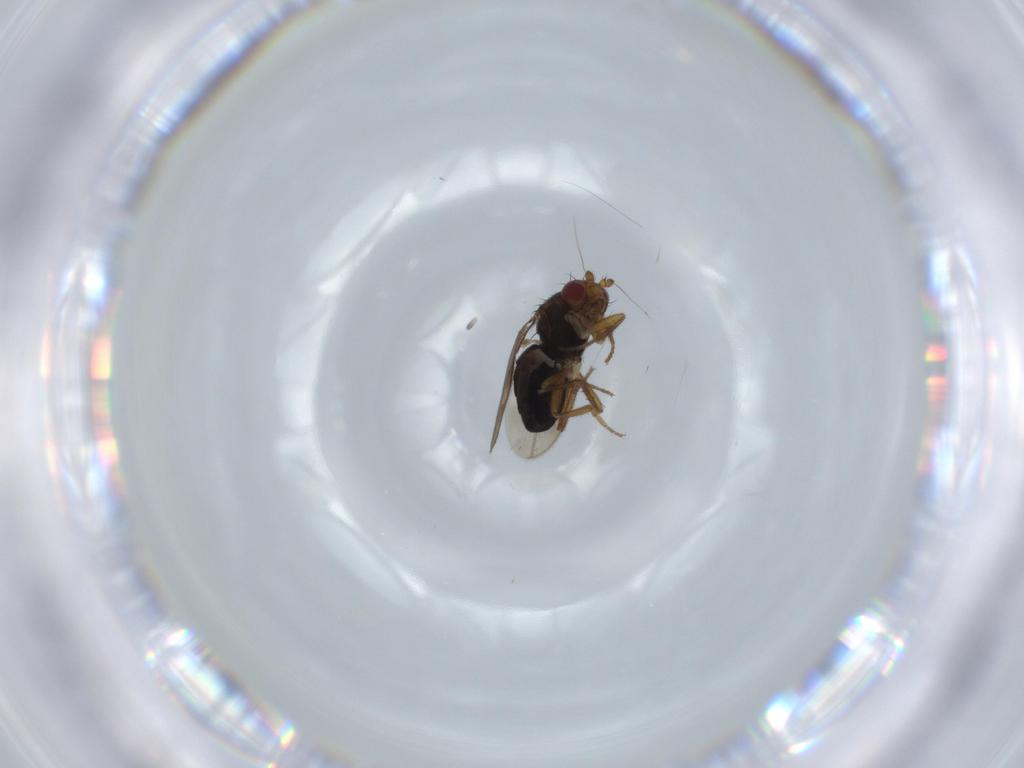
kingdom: Animalia
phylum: Arthropoda
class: Insecta
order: Diptera
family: Sphaeroceridae
